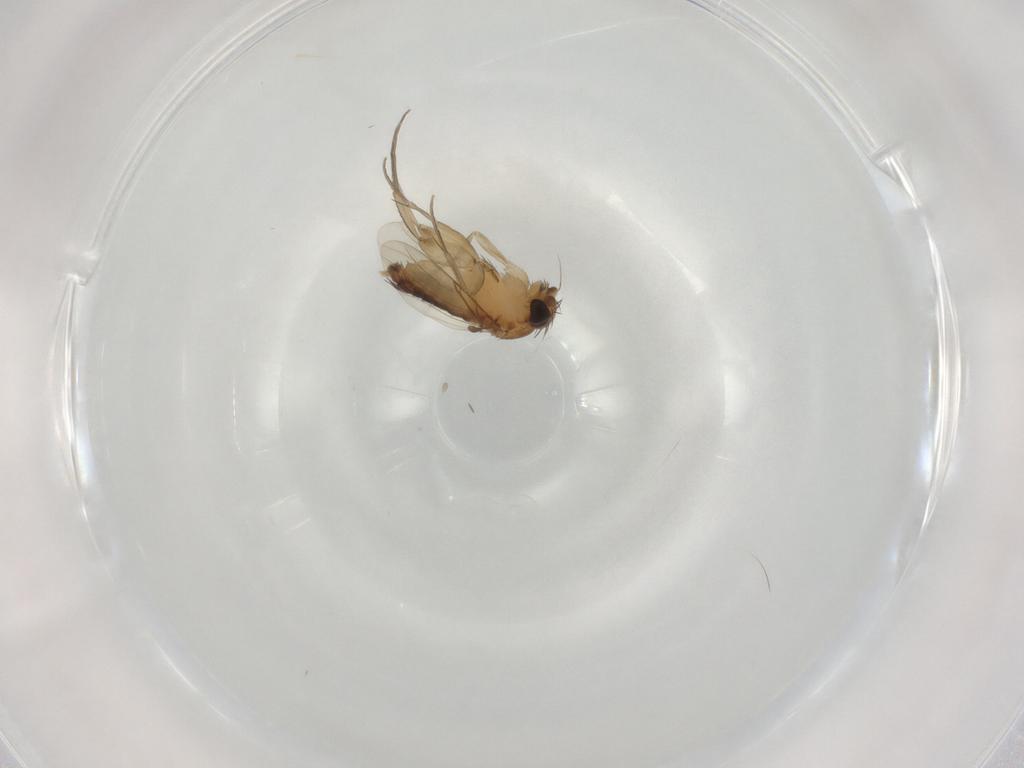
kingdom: Animalia
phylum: Arthropoda
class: Insecta
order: Diptera
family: Phoridae
